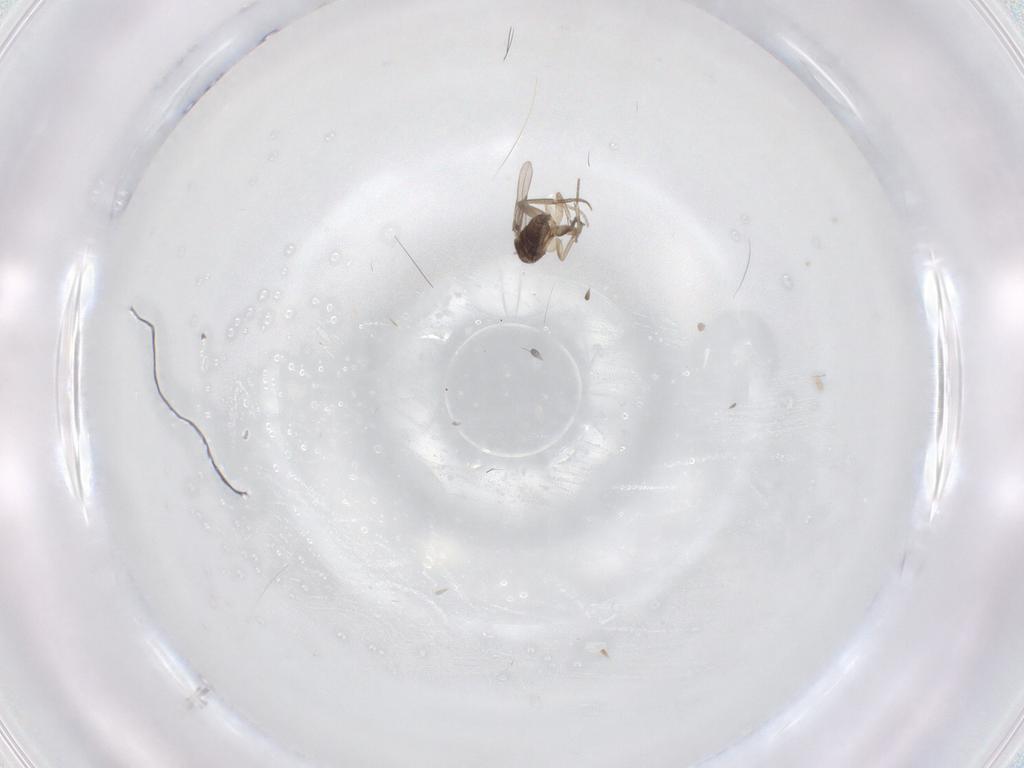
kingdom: Animalia
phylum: Arthropoda
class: Insecta
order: Diptera
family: Phoridae
